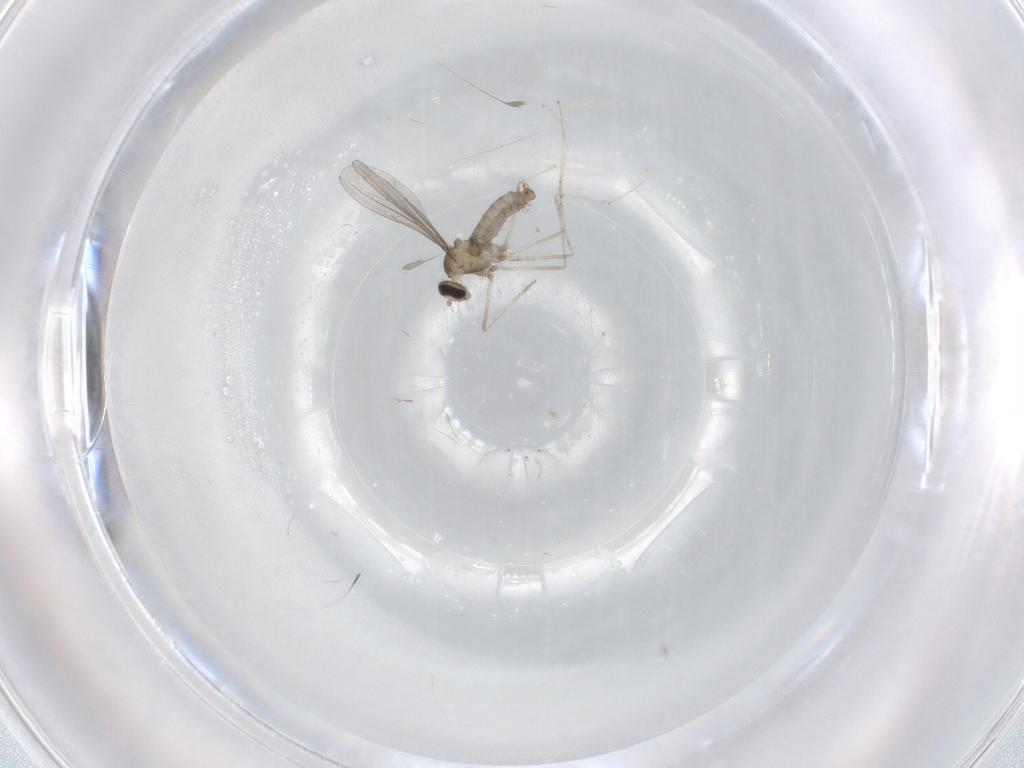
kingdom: Animalia
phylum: Arthropoda
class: Insecta
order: Diptera
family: Cecidomyiidae
